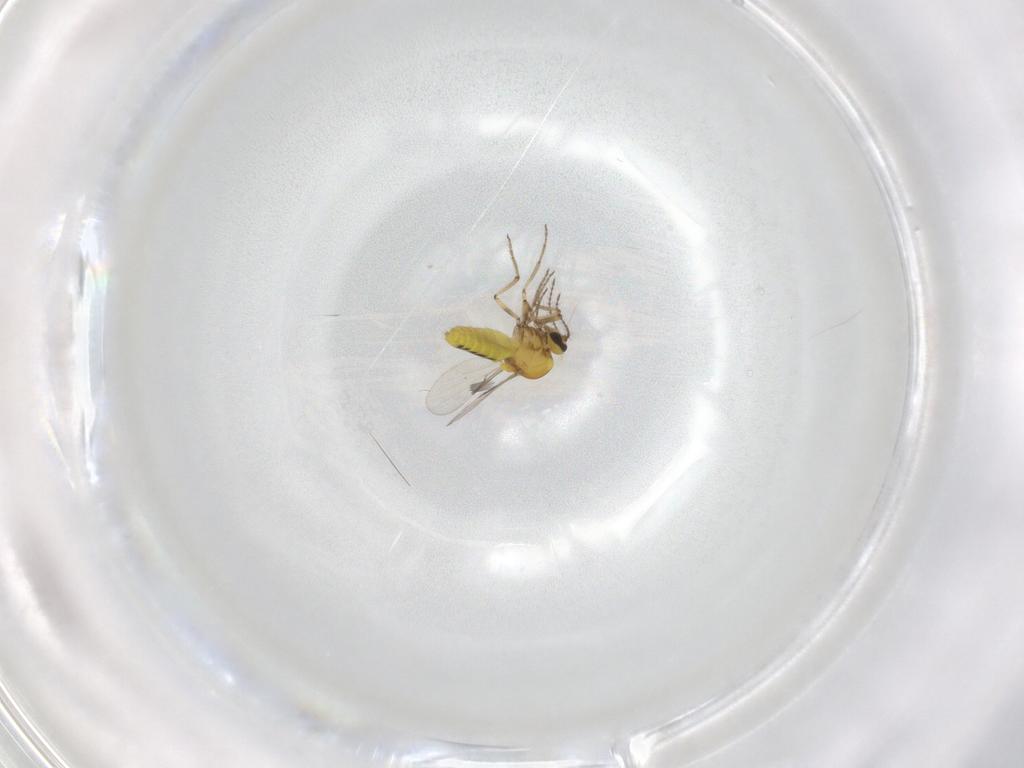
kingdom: Animalia
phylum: Arthropoda
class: Insecta
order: Diptera
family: Ceratopogonidae
